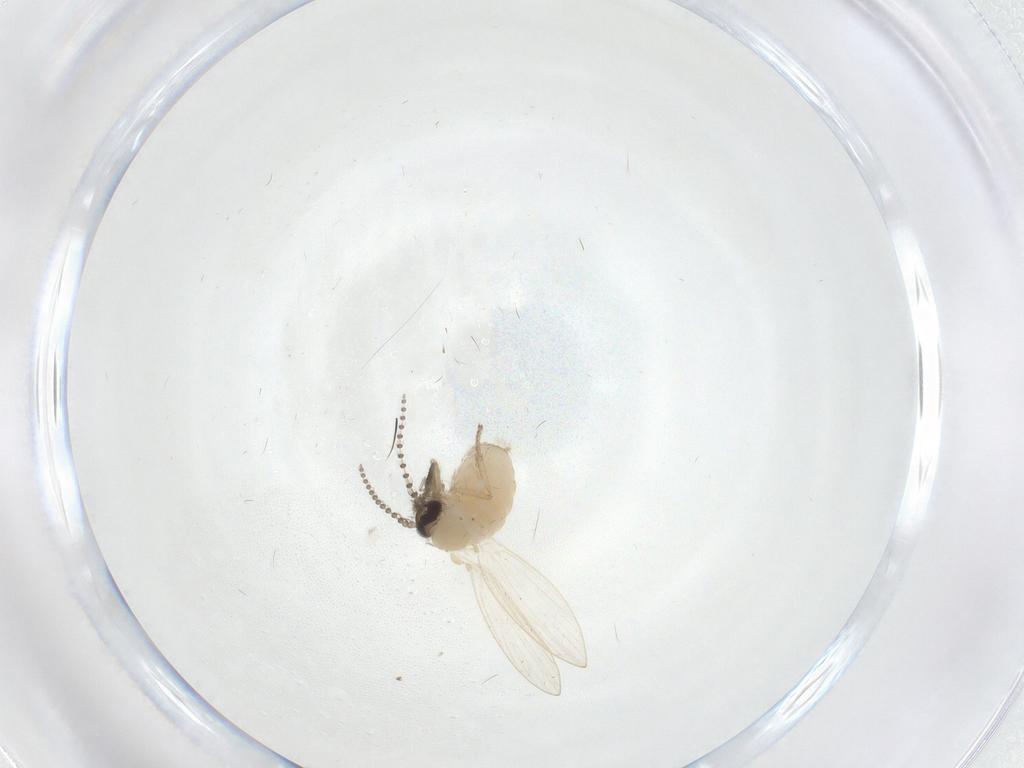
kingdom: Animalia
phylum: Arthropoda
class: Insecta
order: Diptera
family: Psychodidae
